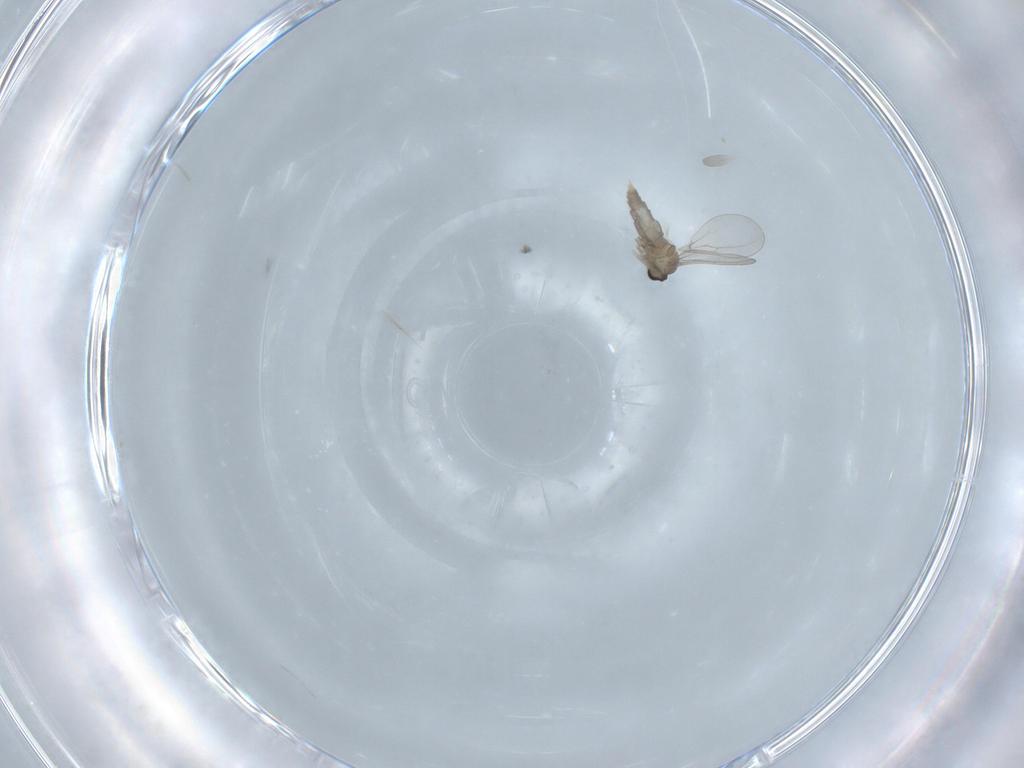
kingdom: Animalia
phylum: Arthropoda
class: Insecta
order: Diptera
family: Cecidomyiidae
